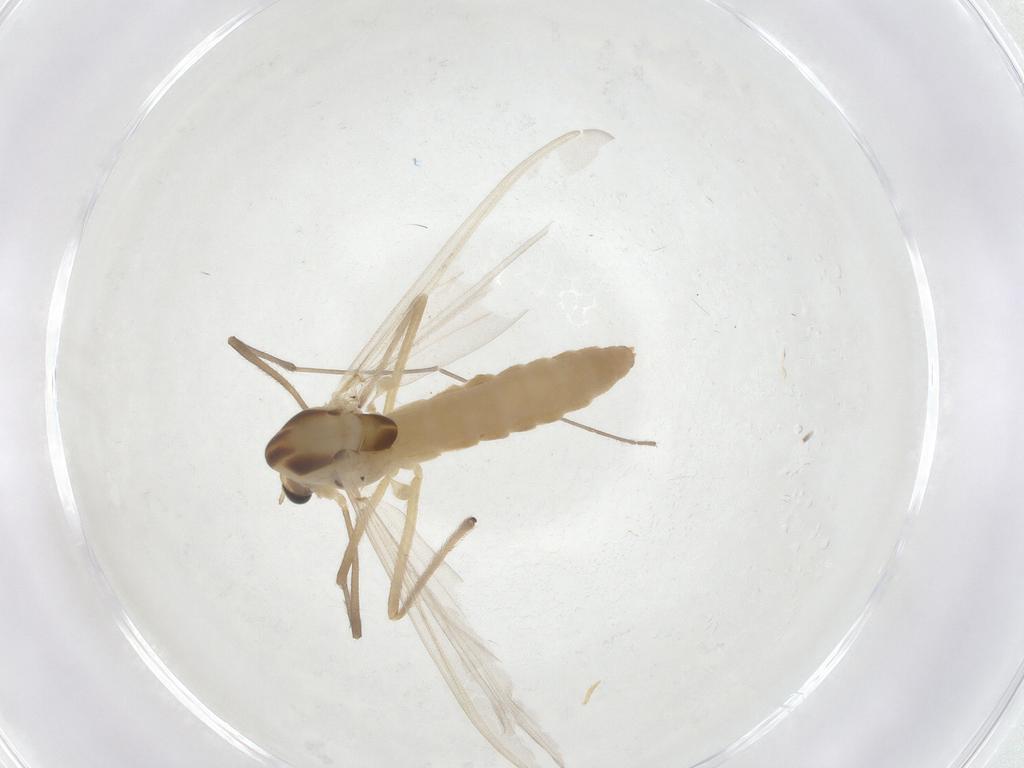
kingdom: Animalia
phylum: Arthropoda
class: Insecta
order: Diptera
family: Chironomidae
